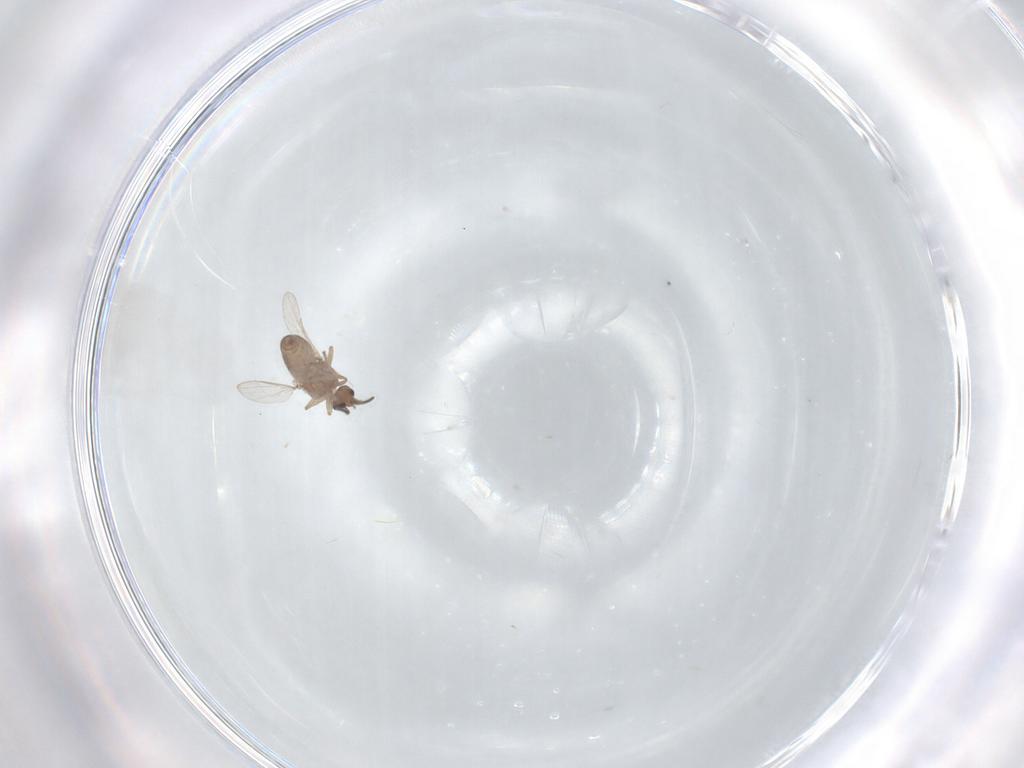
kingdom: Animalia
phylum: Arthropoda
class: Insecta
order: Diptera
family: Ceratopogonidae
